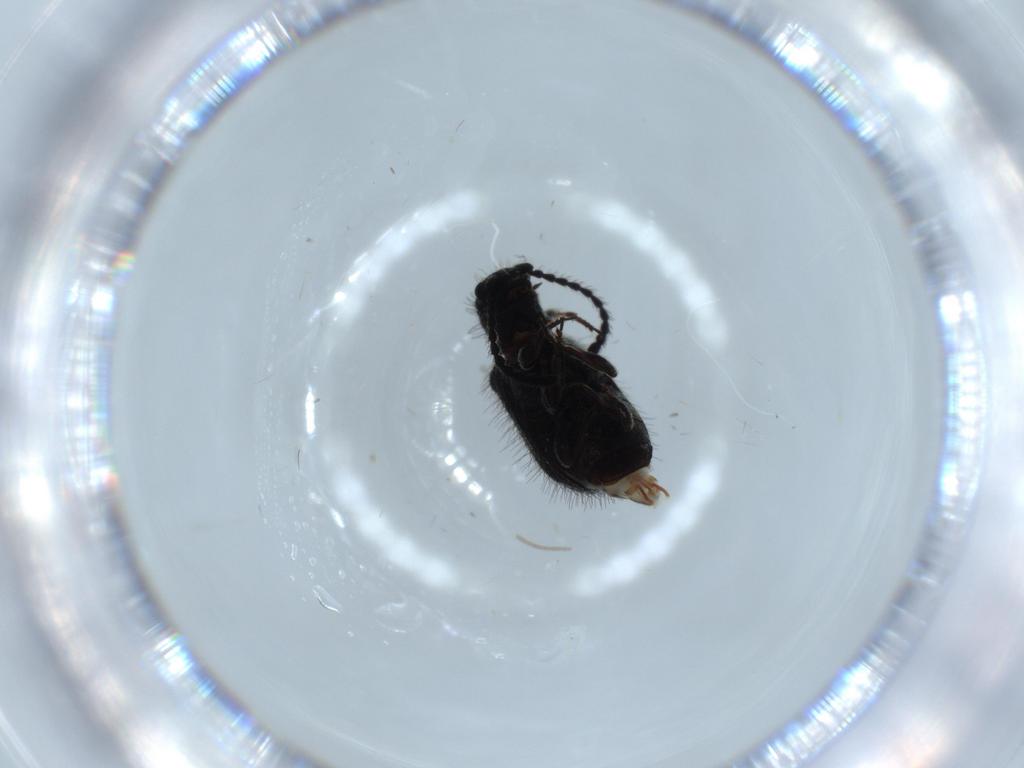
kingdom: Animalia
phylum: Arthropoda
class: Insecta
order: Coleoptera
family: Ptinidae
